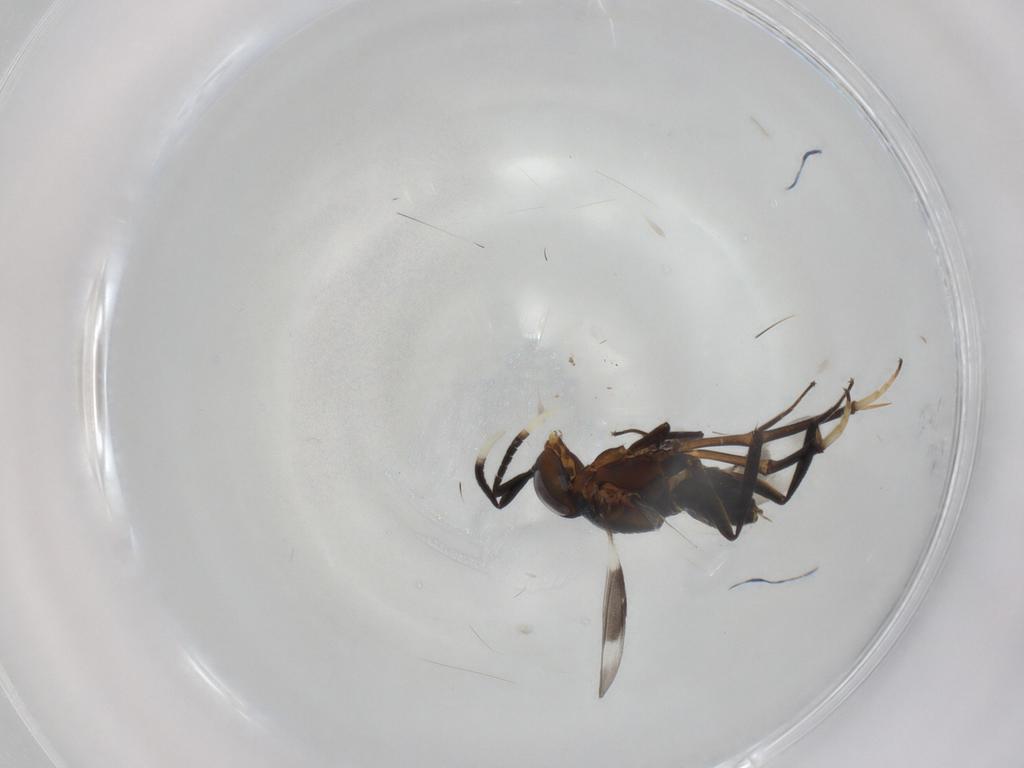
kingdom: Animalia
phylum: Arthropoda
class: Insecta
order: Hymenoptera
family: Encyrtidae
